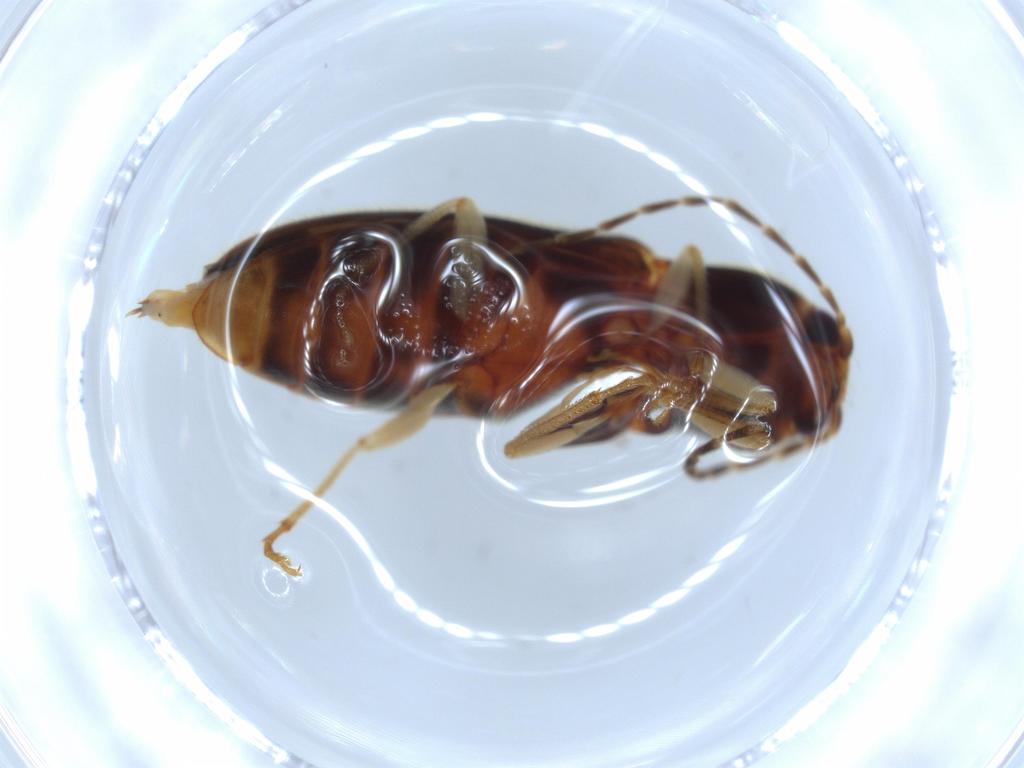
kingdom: Animalia
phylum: Arthropoda
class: Insecta
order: Coleoptera
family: Elateridae
